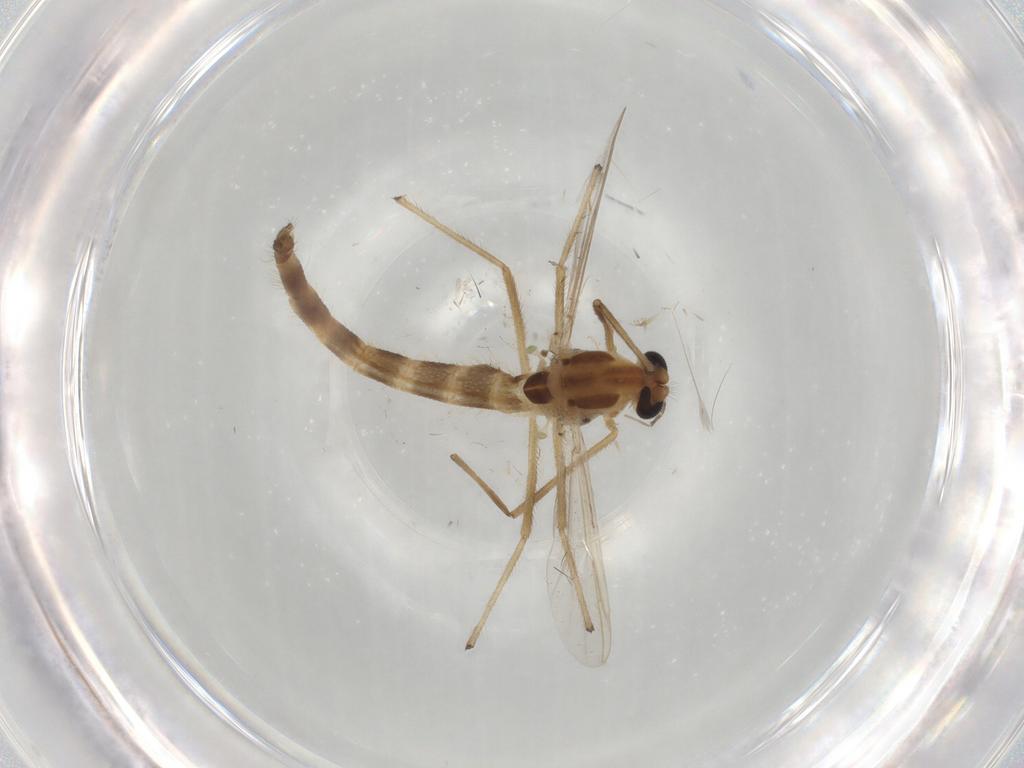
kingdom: Animalia
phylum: Arthropoda
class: Insecta
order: Diptera
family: Chironomidae
